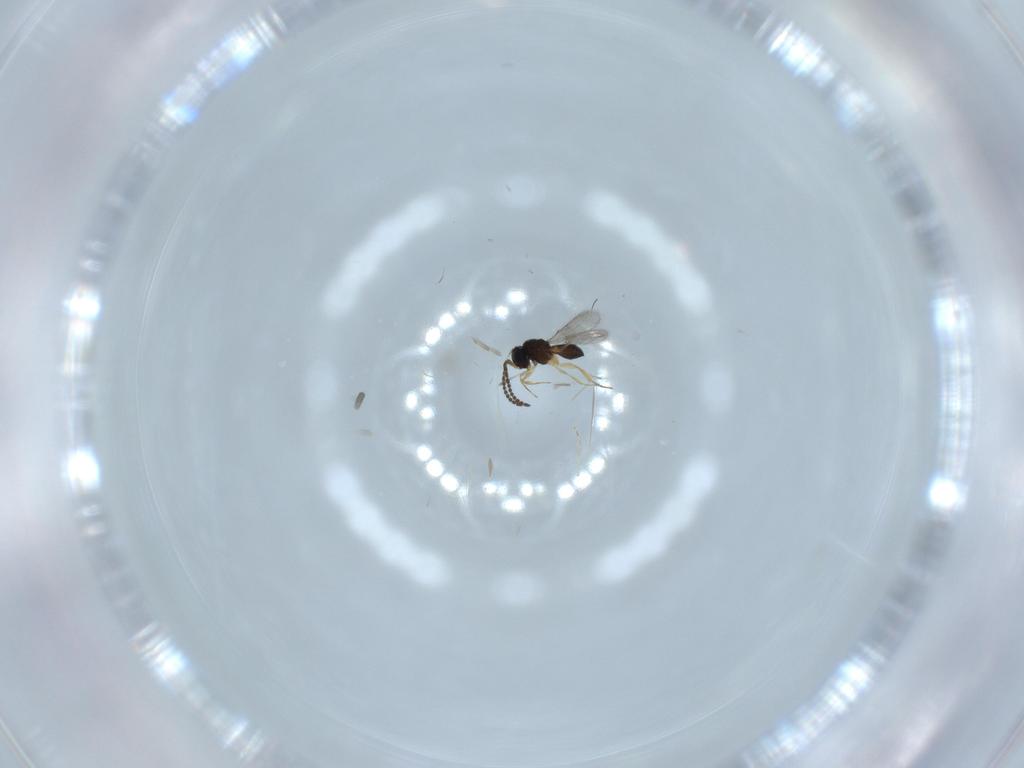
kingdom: Animalia
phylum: Arthropoda
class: Insecta
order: Hymenoptera
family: Scelionidae
